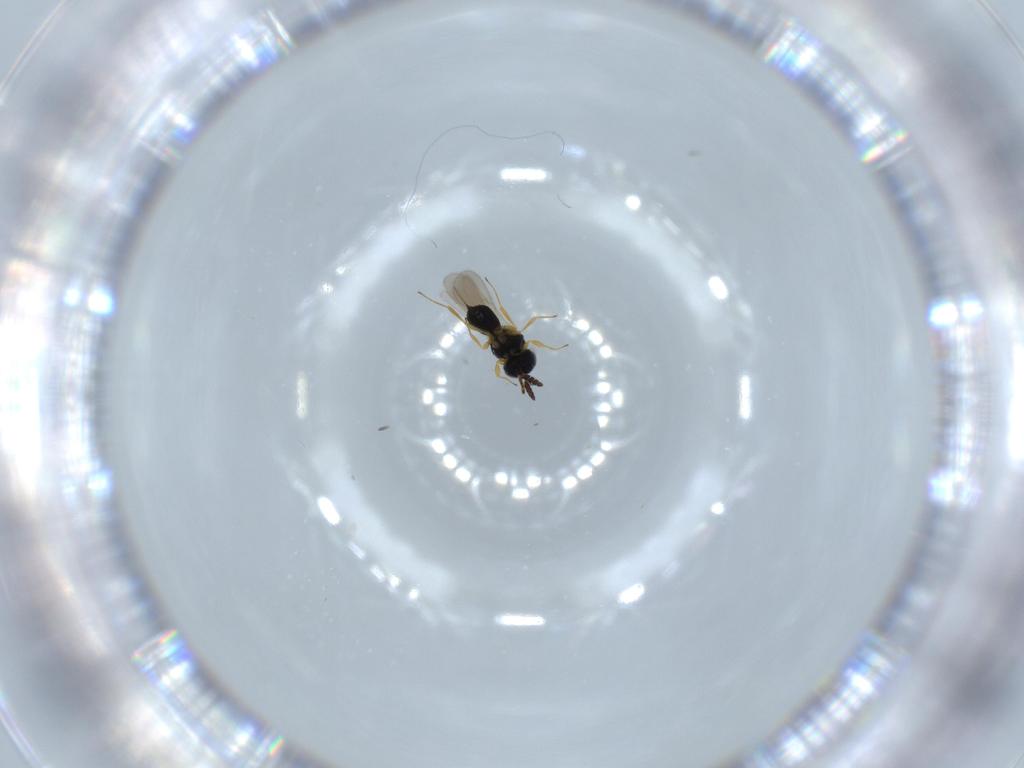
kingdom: Animalia
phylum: Arthropoda
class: Insecta
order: Hymenoptera
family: Scelionidae
